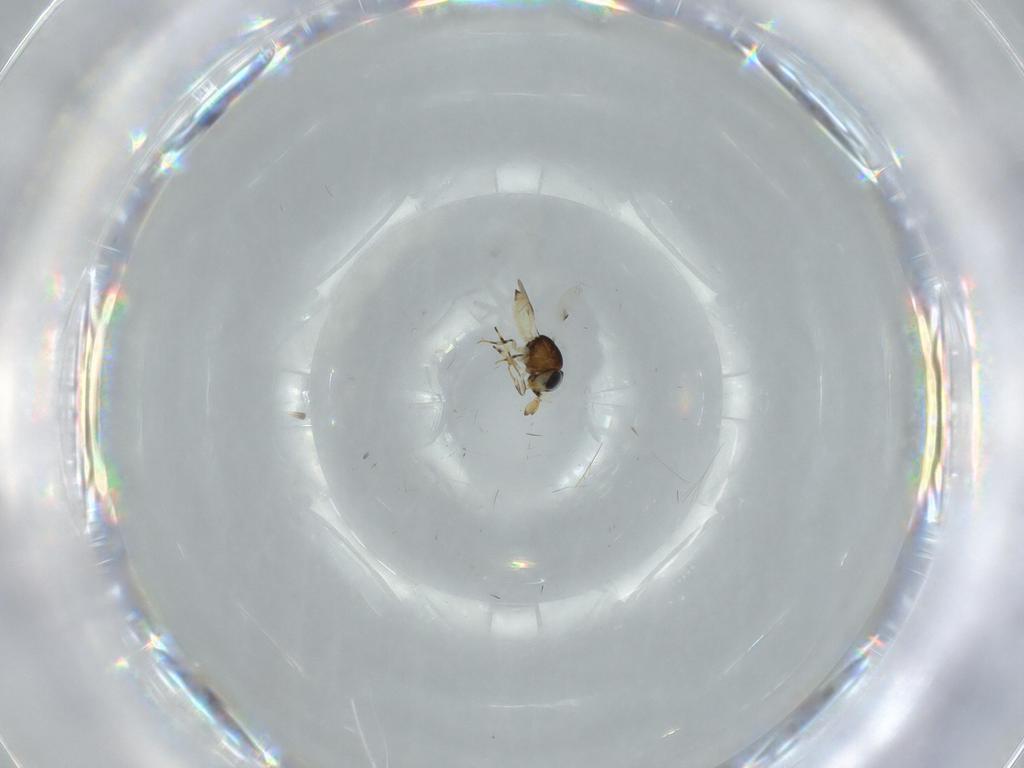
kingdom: Animalia
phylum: Arthropoda
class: Insecta
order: Hymenoptera
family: Scelionidae
